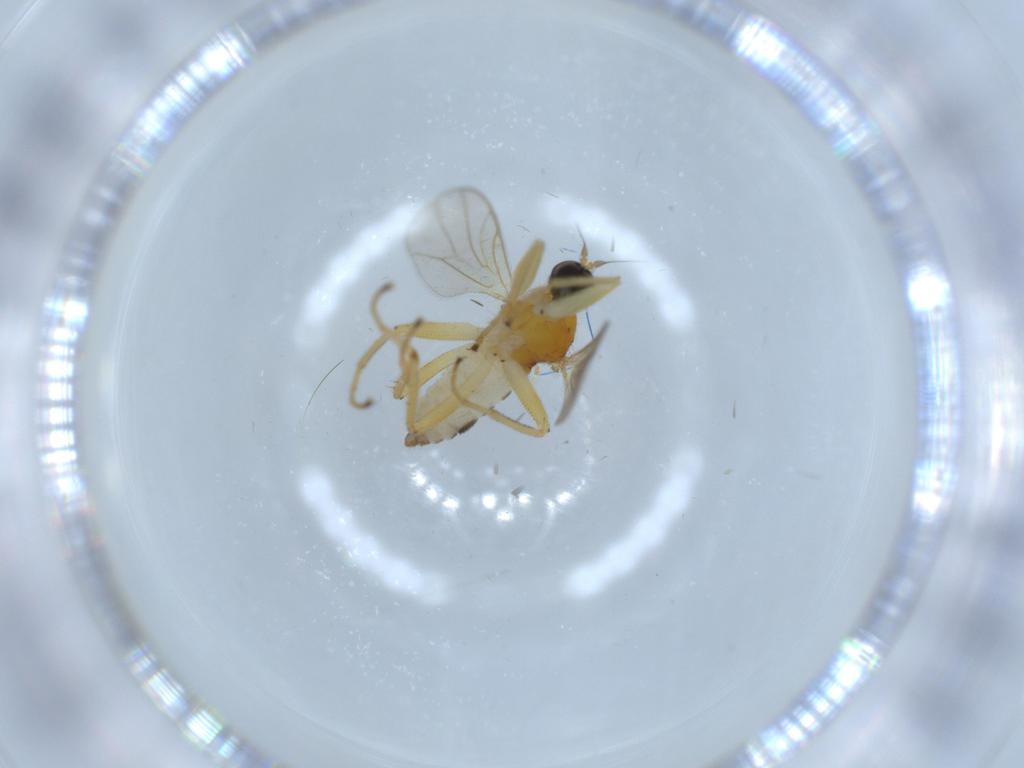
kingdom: Animalia
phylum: Arthropoda
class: Insecta
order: Diptera
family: Hybotidae
